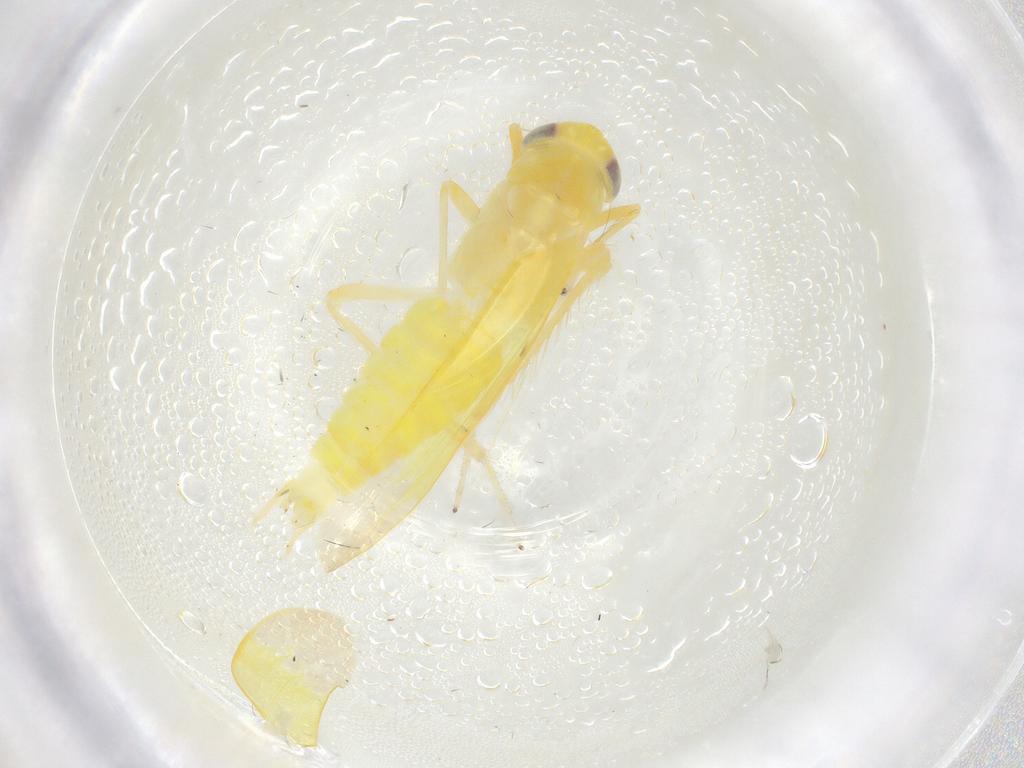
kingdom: Animalia
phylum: Arthropoda
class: Insecta
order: Hemiptera
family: Cicadellidae
